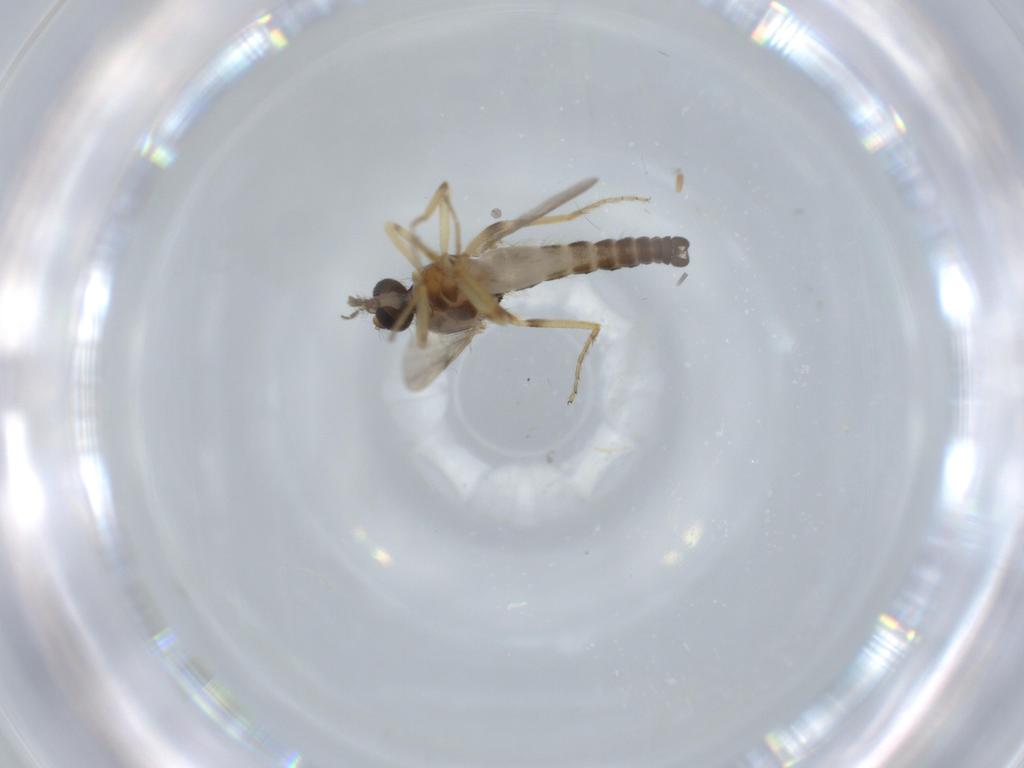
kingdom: Animalia
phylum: Arthropoda
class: Insecta
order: Diptera
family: Ceratopogonidae
